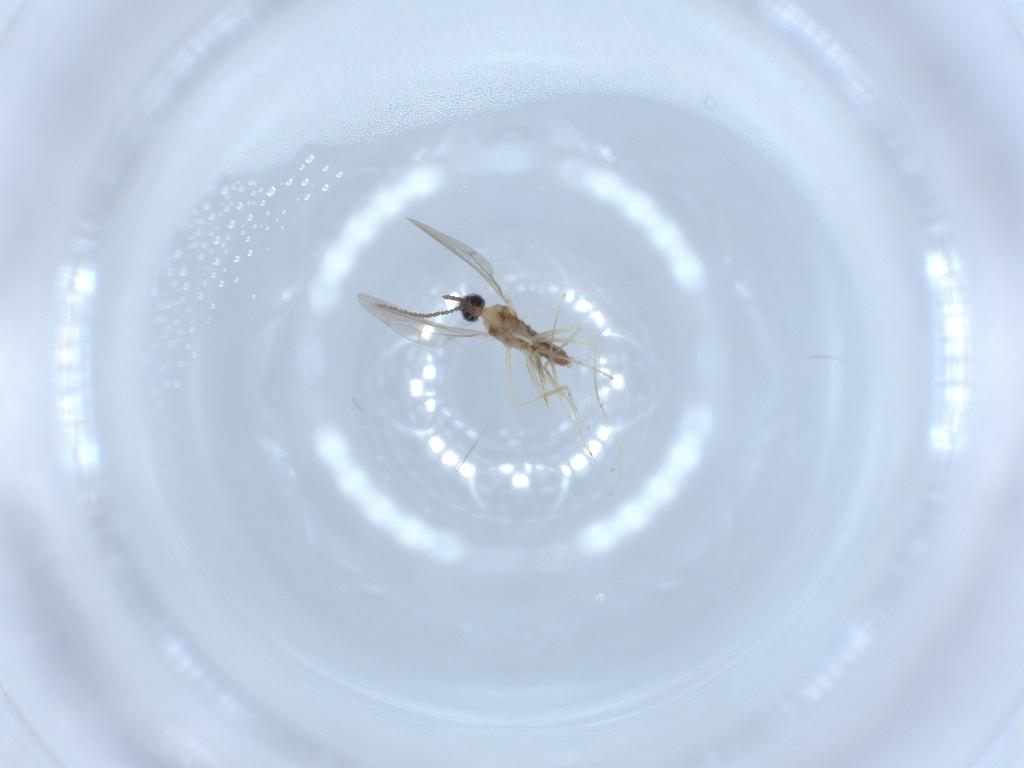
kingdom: Animalia
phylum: Arthropoda
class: Insecta
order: Diptera
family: Cecidomyiidae
